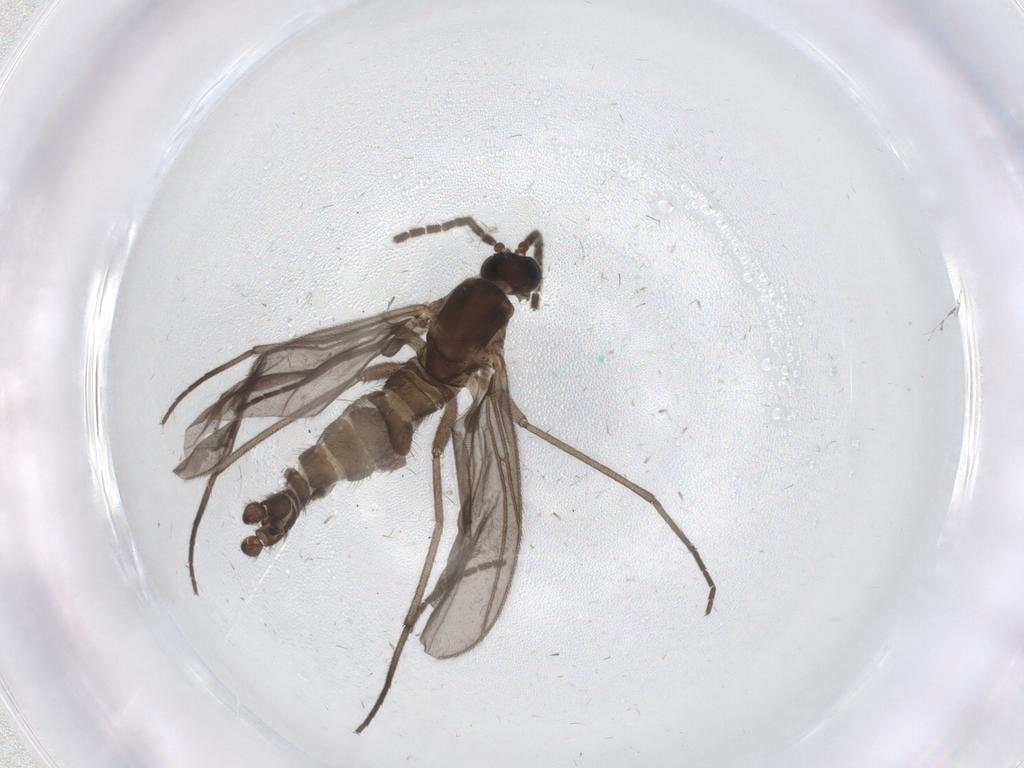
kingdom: Animalia
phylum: Arthropoda
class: Insecta
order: Diptera
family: Sciaridae
